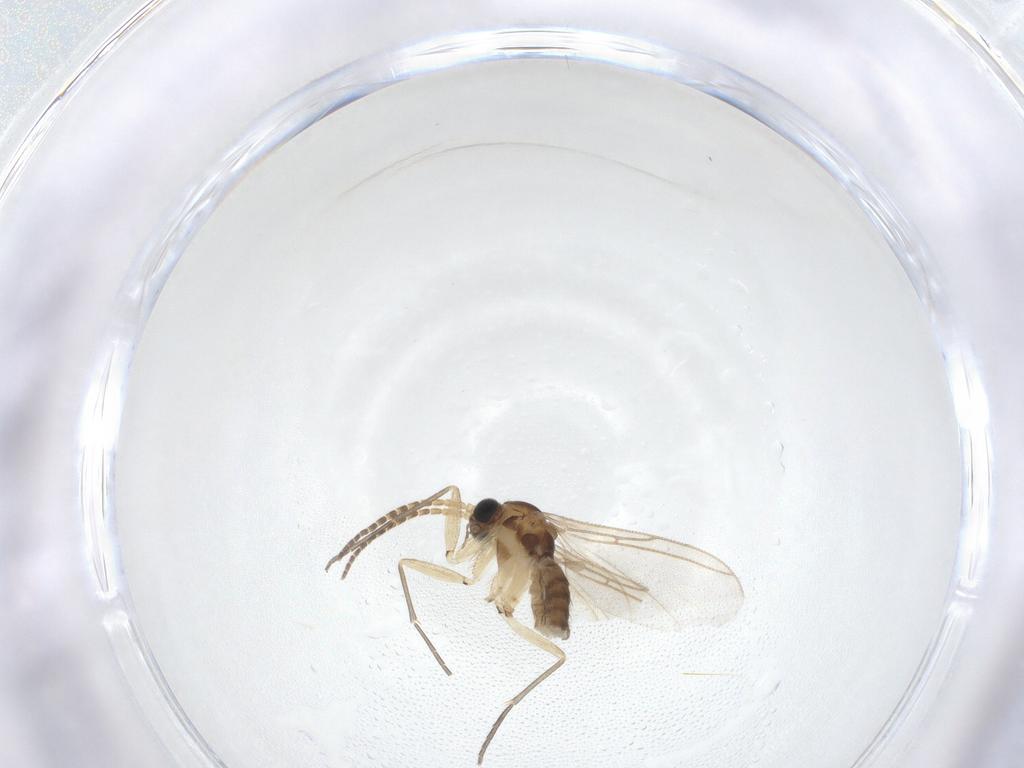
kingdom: Animalia
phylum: Arthropoda
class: Insecta
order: Diptera
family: Sciaridae
